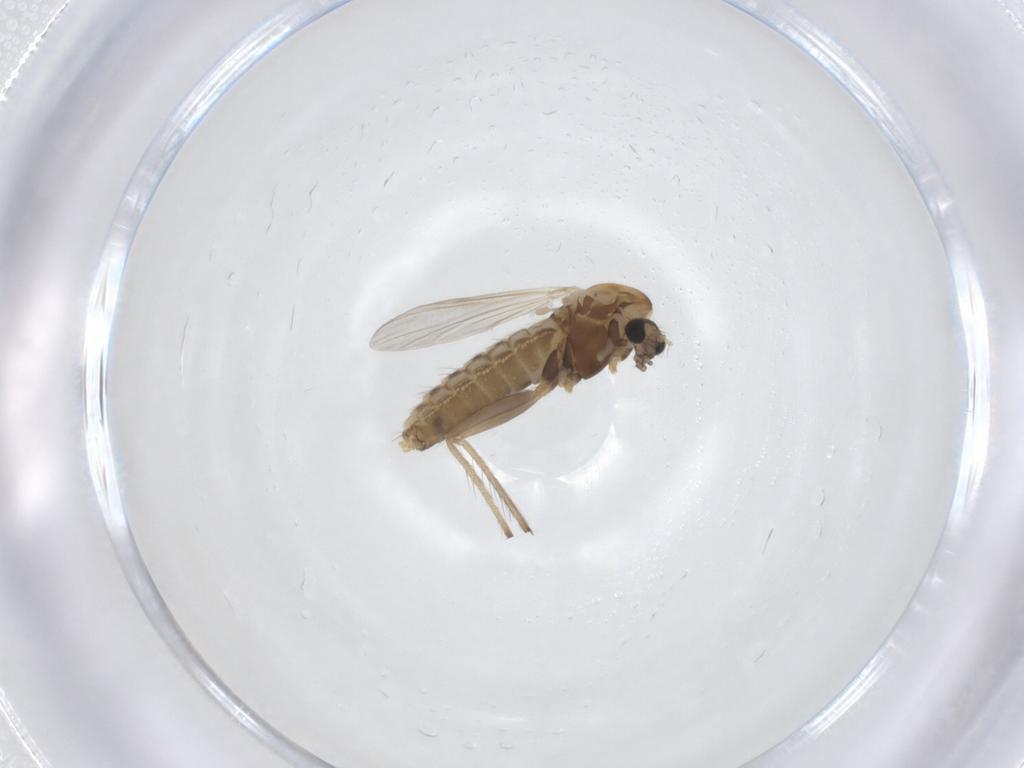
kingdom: Animalia
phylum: Arthropoda
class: Insecta
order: Diptera
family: Chironomidae
